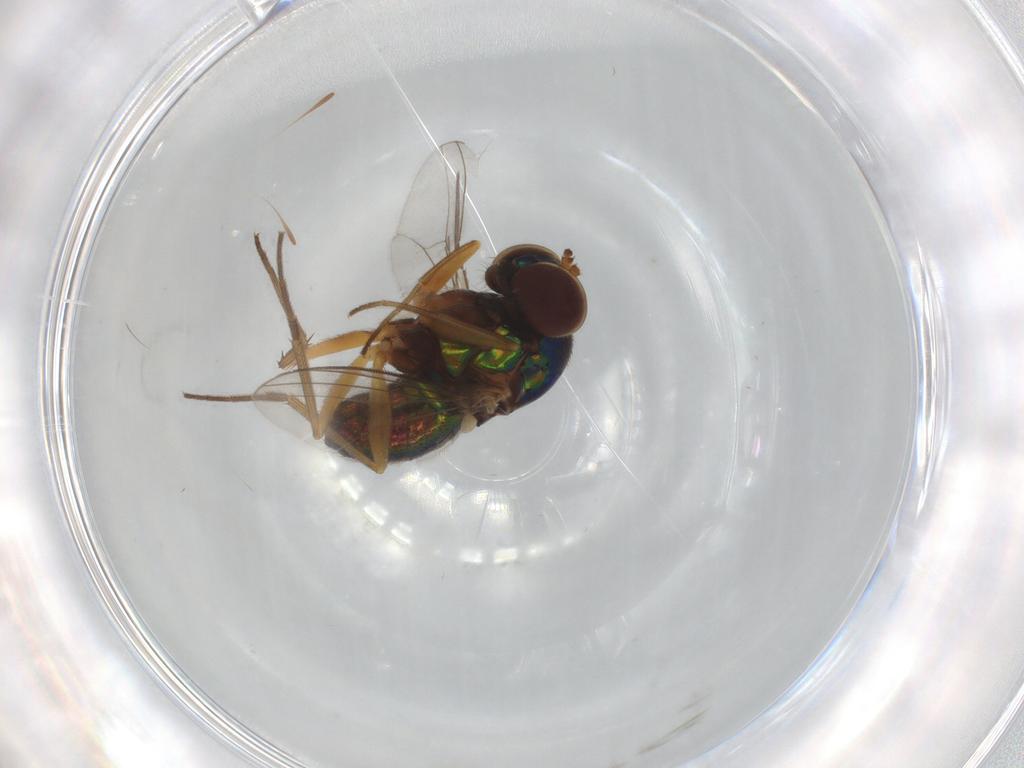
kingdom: Animalia
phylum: Arthropoda
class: Insecta
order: Diptera
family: Dolichopodidae
